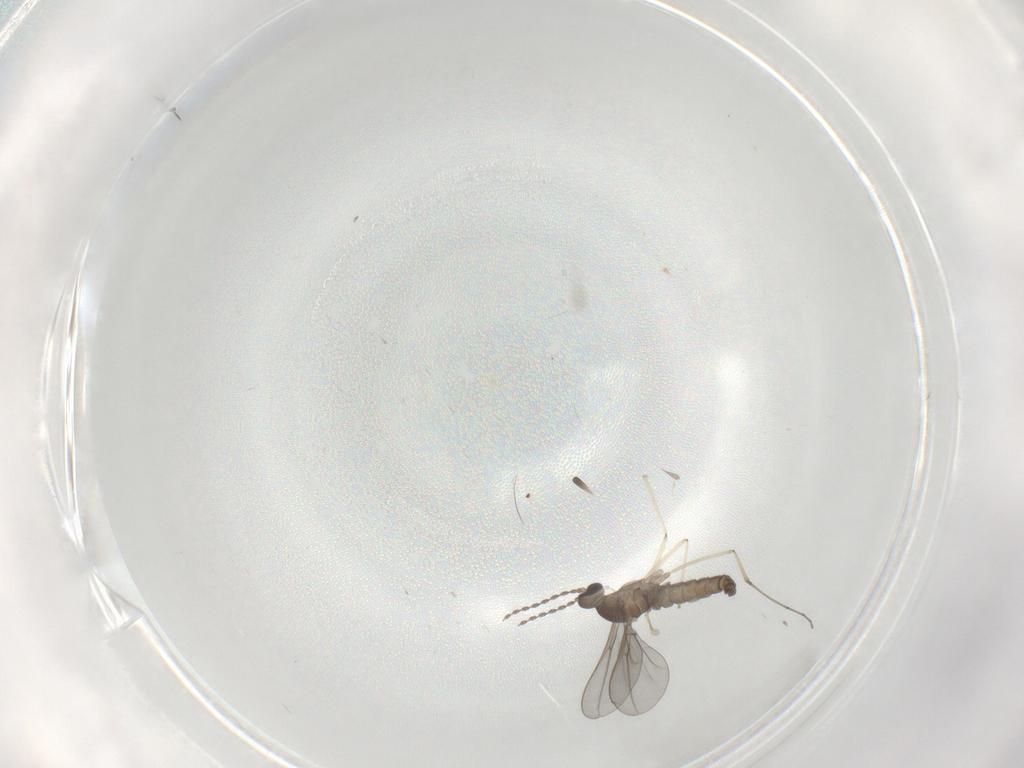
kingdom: Animalia
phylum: Arthropoda
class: Insecta
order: Diptera
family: Cecidomyiidae
